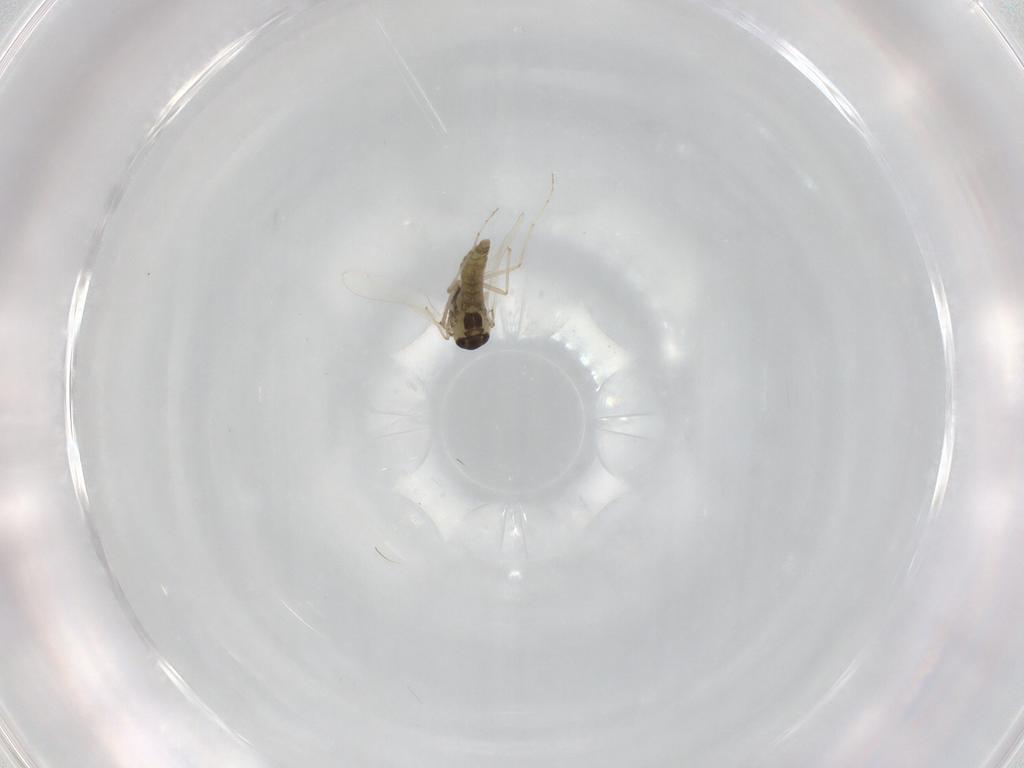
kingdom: Animalia
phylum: Arthropoda
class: Insecta
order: Diptera
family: Chironomidae
